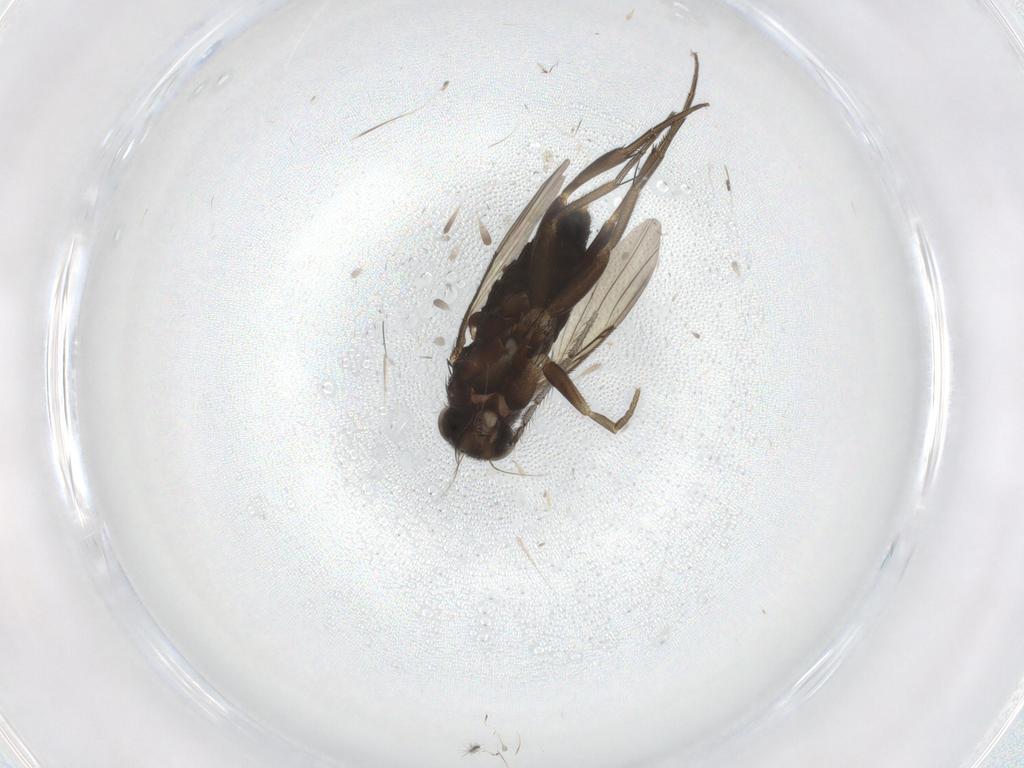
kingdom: Animalia
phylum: Arthropoda
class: Insecta
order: Diptera
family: Ceratopogonidae
